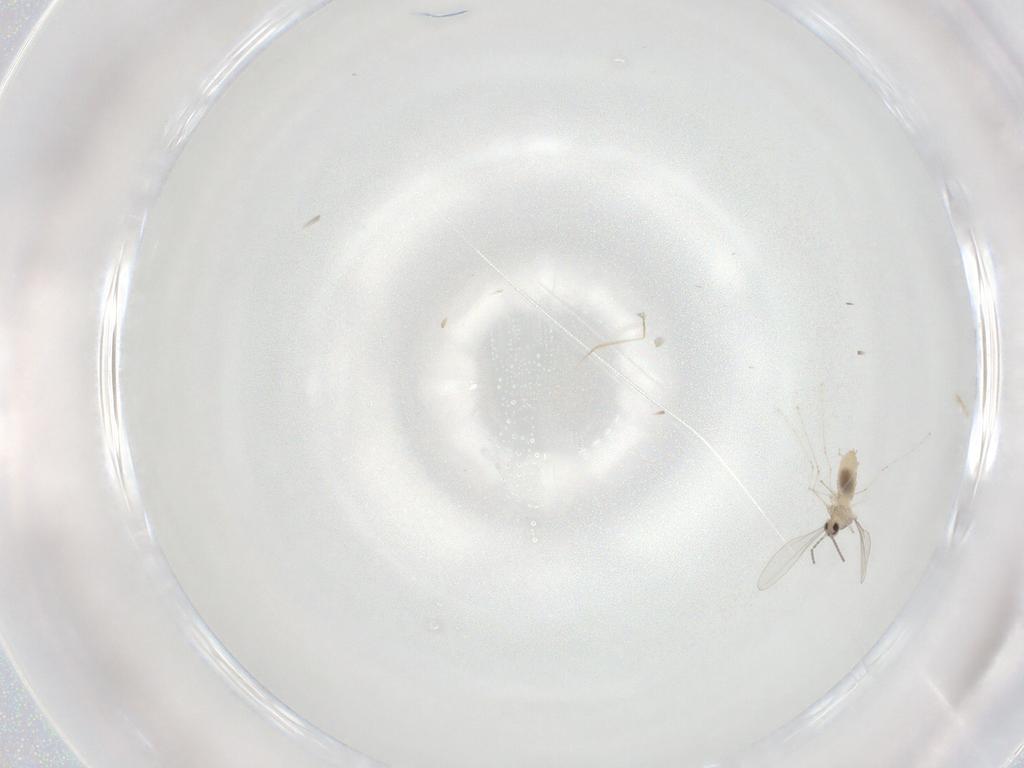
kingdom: Animalia
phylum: Arthropoda
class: Insecta
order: Diptera
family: Cecidomyiidae
